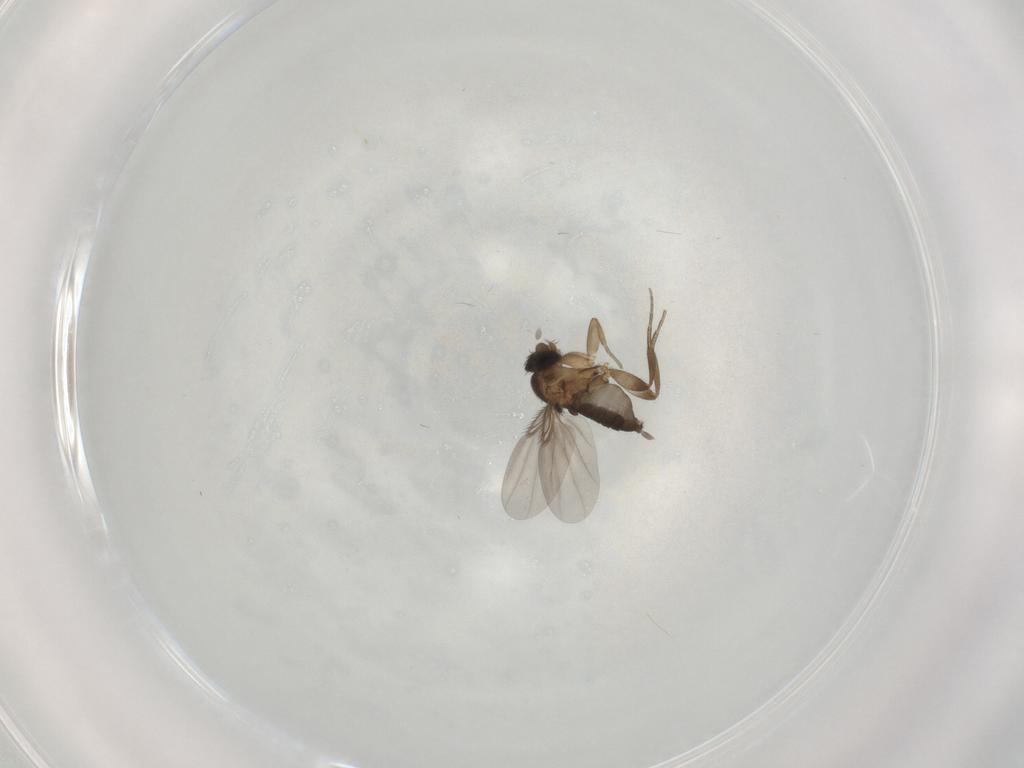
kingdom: Animalia
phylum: Arthropoda
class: Insecta
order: Diptera
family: Phoridae
